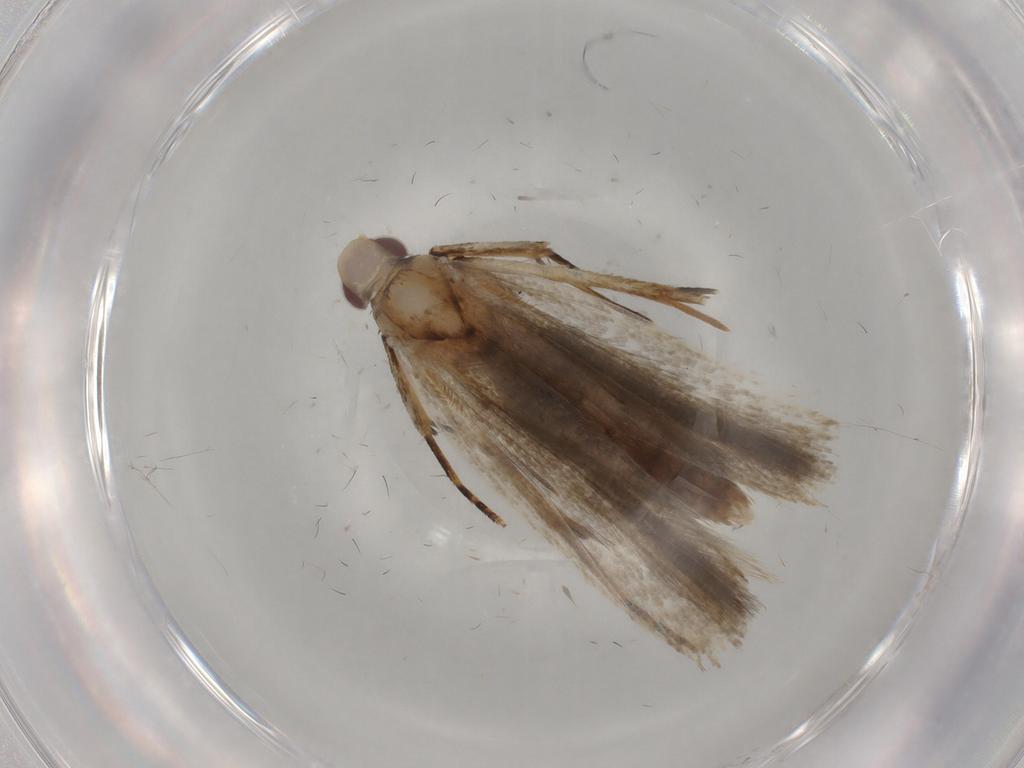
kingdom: Animalia
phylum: Arthropoda
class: Insecta
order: Lepidoptera
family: Gelechiidae
